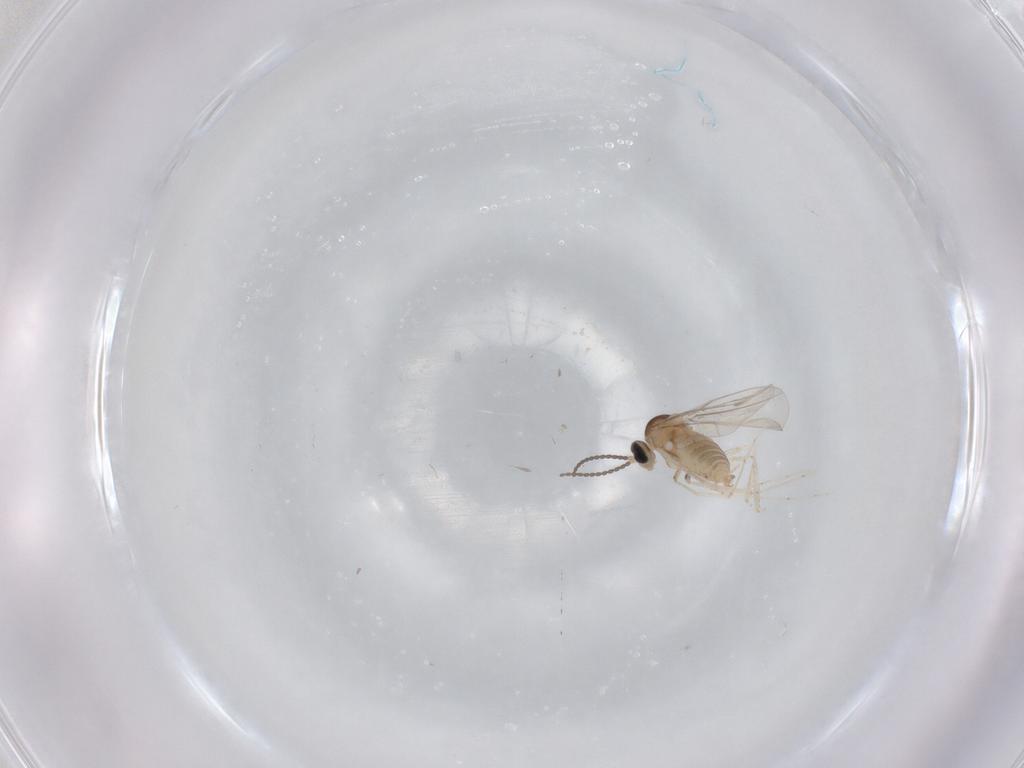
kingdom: Animalia
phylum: Arthropoda
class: Insecta
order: Diptera
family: Cecidomyiidae
